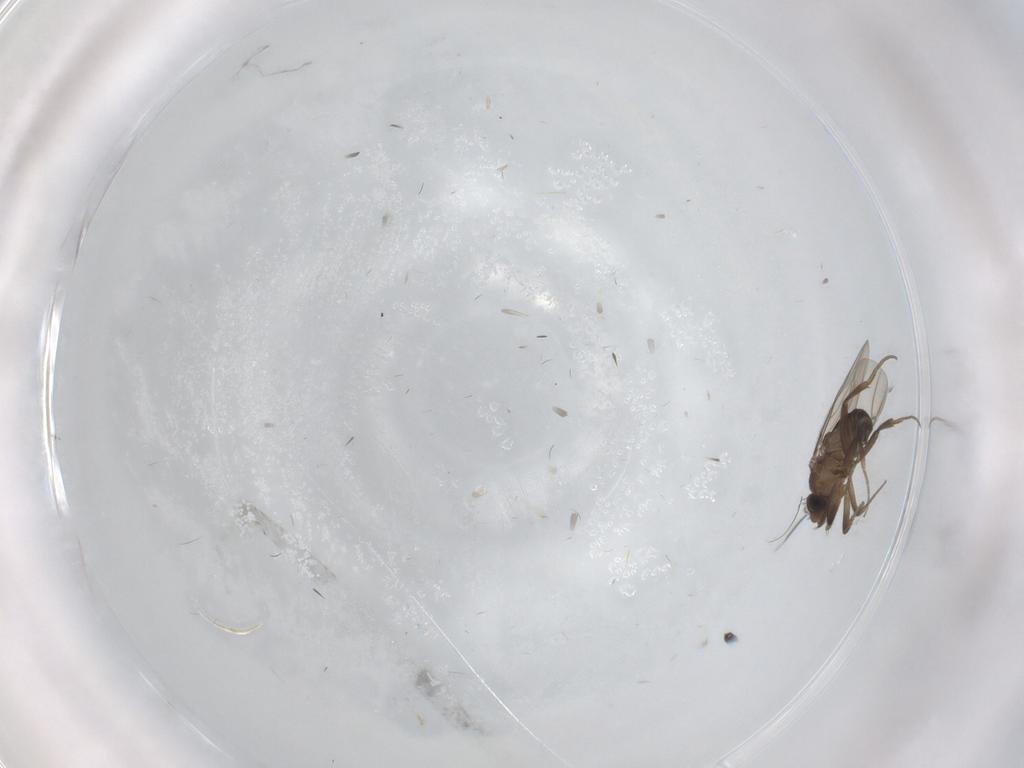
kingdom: Animalia
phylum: Arthropoda
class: Insecta
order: Diptera
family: Phoridae
